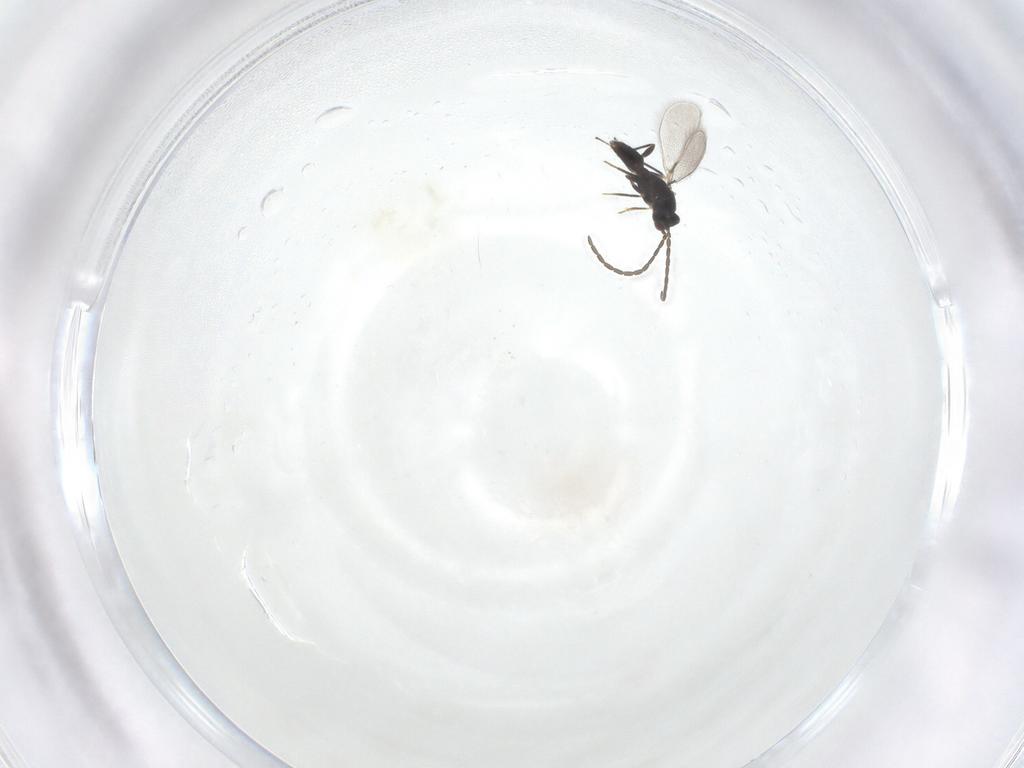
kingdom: Animalia
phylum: Arthropoda
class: Insecta
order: Hymenoptera
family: Mymaridae
